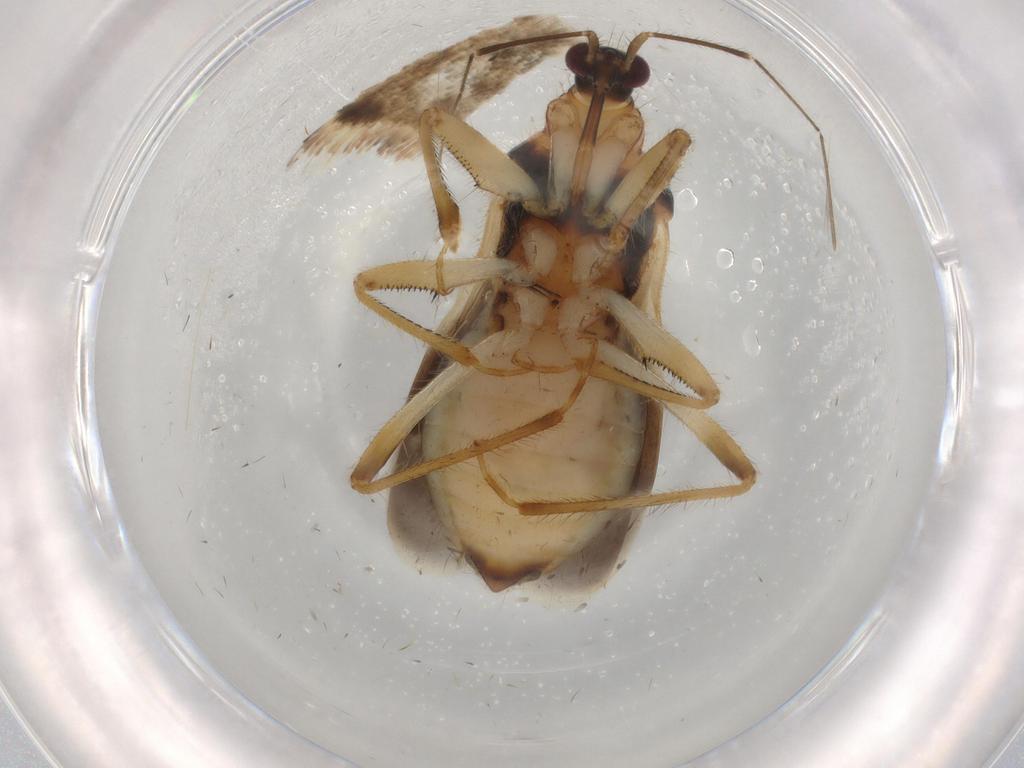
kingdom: Animalia
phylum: Arthropoda
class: Insecta
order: Hemiptera
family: Nabidae
